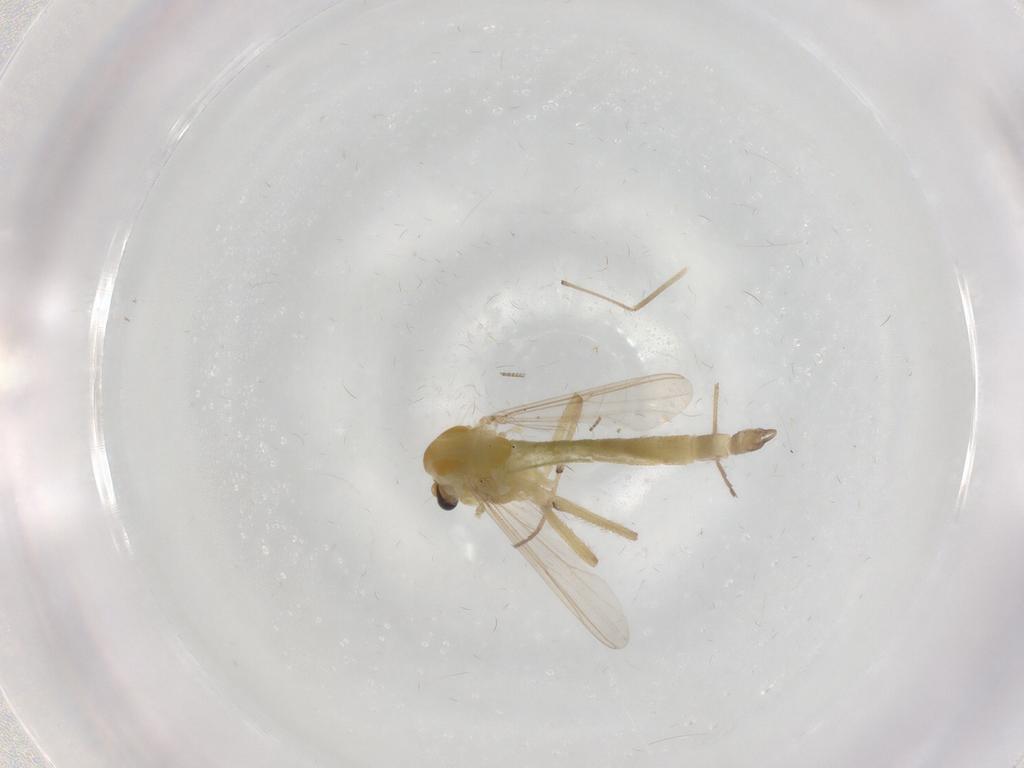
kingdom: Animalia
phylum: Arthropoda
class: Insecta
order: Diptera
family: Chironomidae
